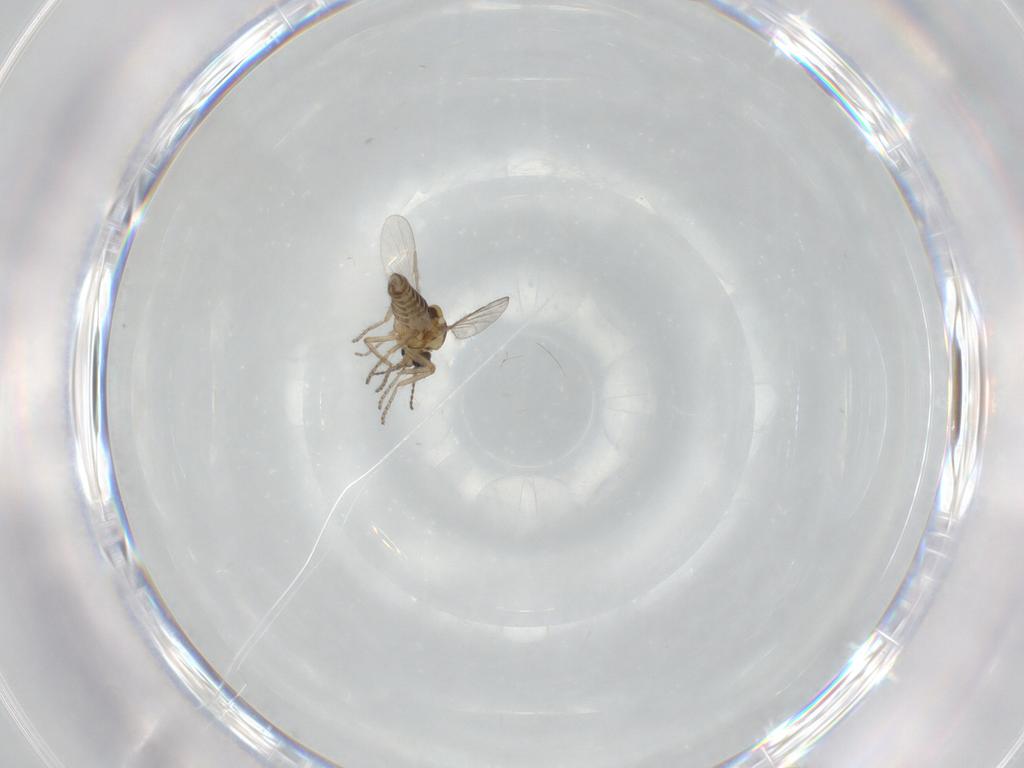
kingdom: Animalia
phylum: Arthropoda
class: Insecta
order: Diptera
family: Ceratopogonidae
